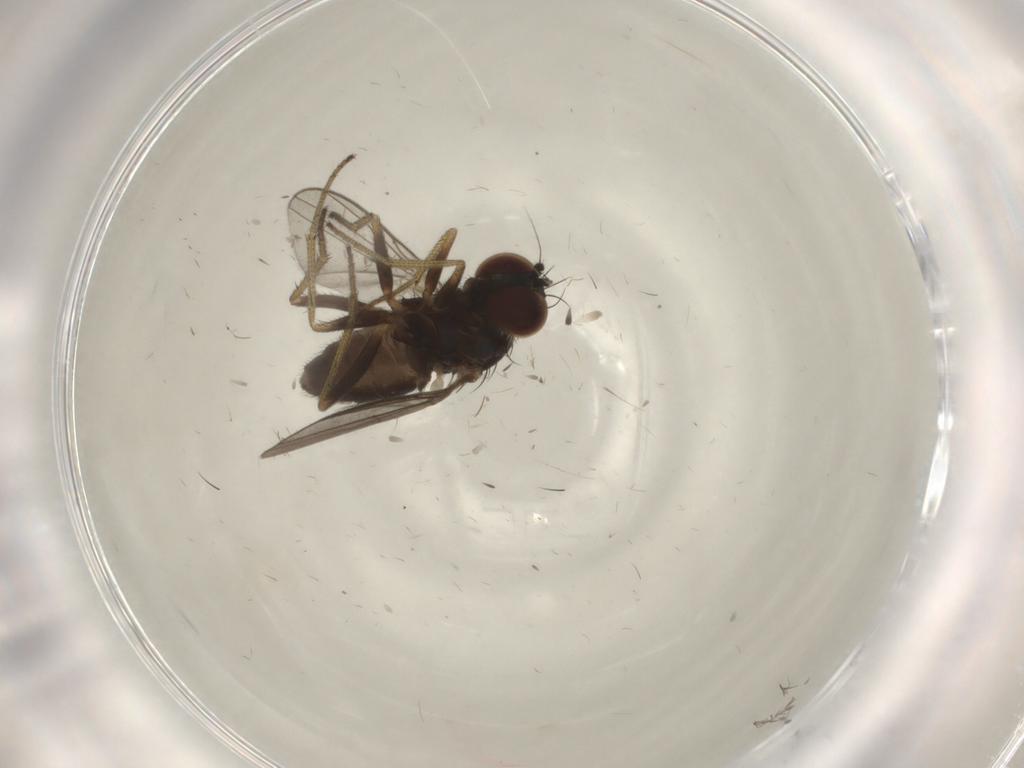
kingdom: Animalia
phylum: Arthropoda
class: Insecta
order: Diptera
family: Dolichopodidae
